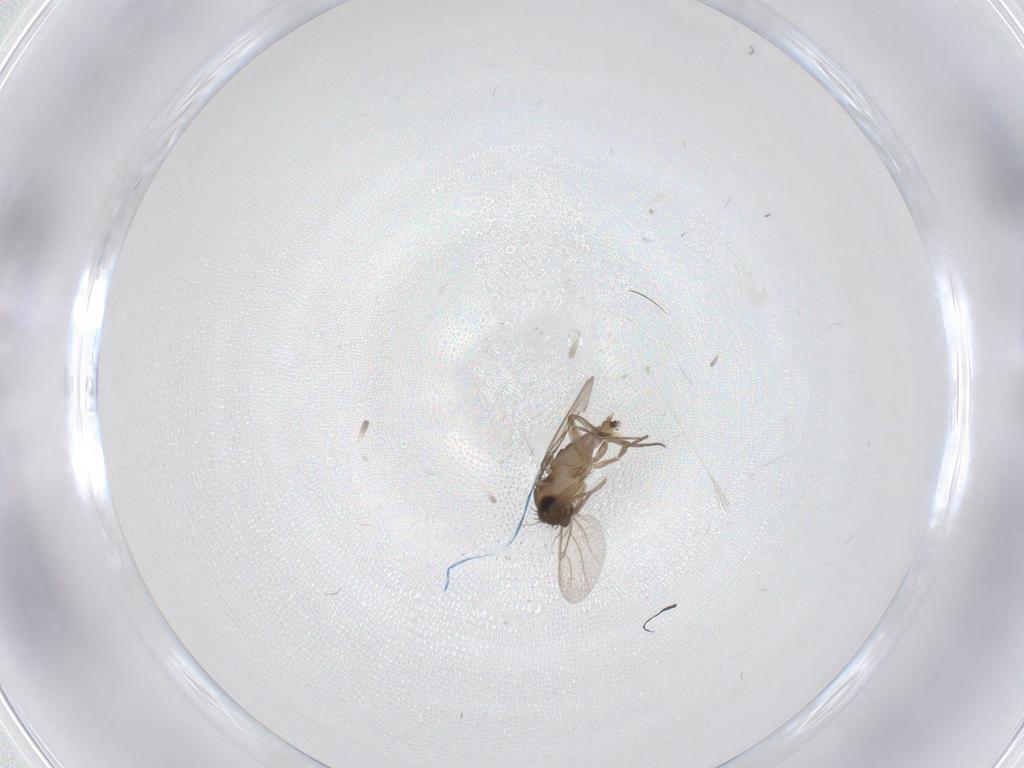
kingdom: Animalia
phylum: Arthropoda
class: Insecta
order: Diptera
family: Phoridae
